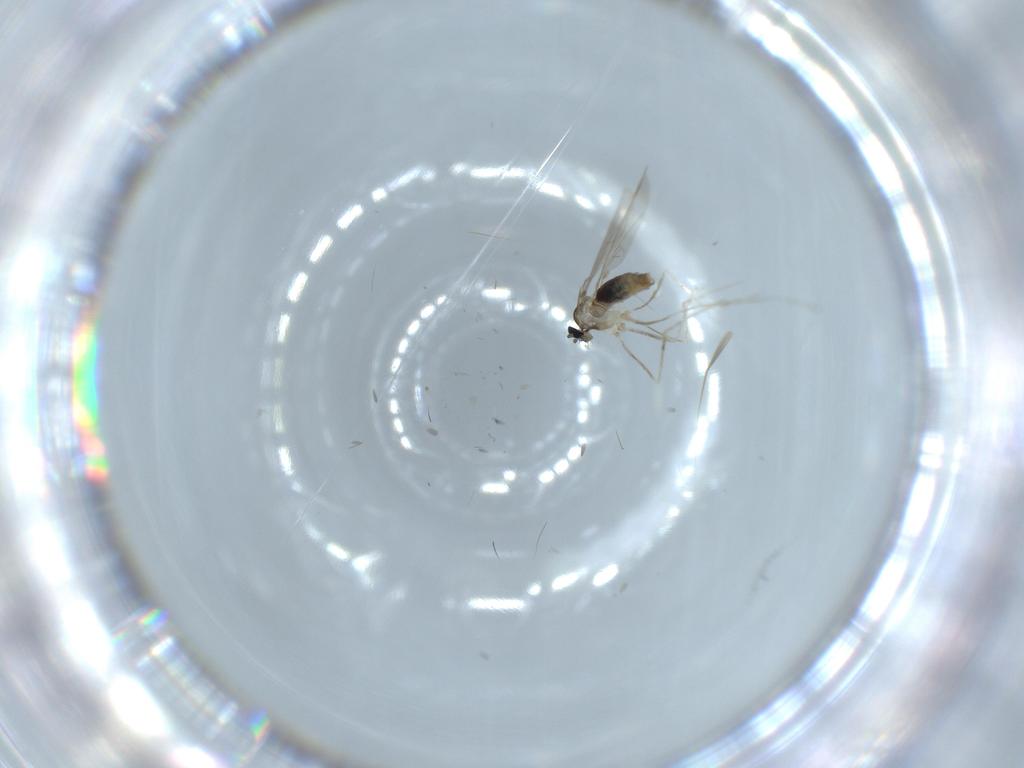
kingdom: Animalia
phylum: Arthropoda
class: Insecta
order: Diptera
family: Cecidomyiidae
